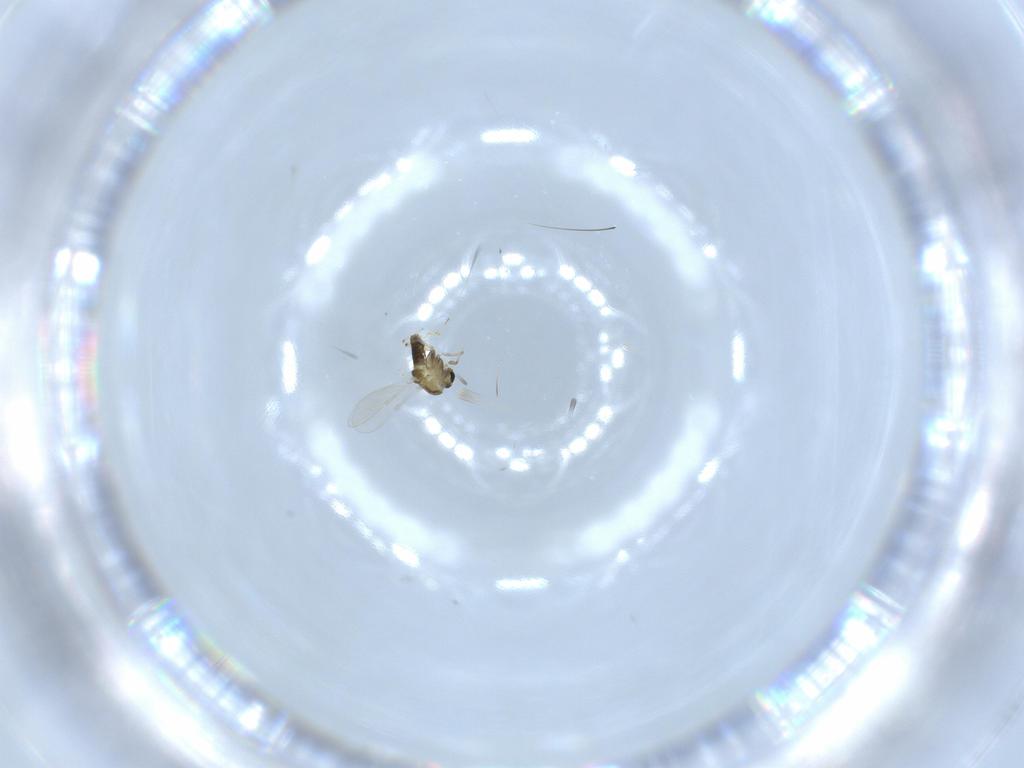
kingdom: Animalia
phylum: Arthropoda
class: Insecta
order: Diptera
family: Chironomidae
